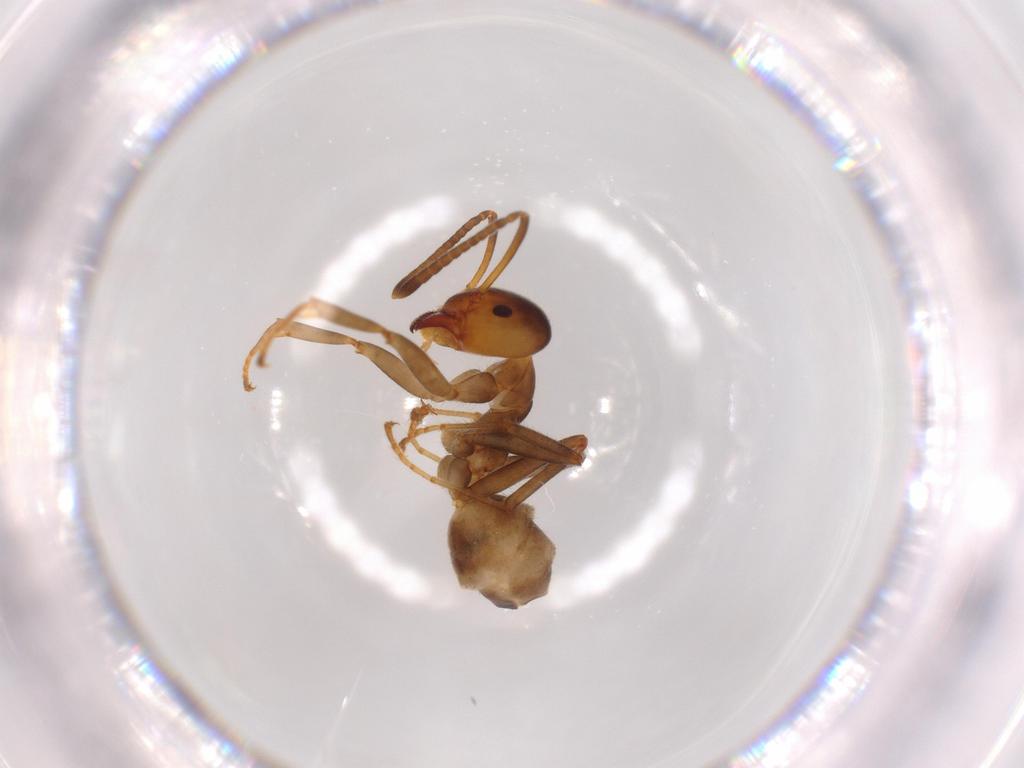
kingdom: Animalia
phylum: Arthropoda
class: Insecta
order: Hymenoptera
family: Formicidae
